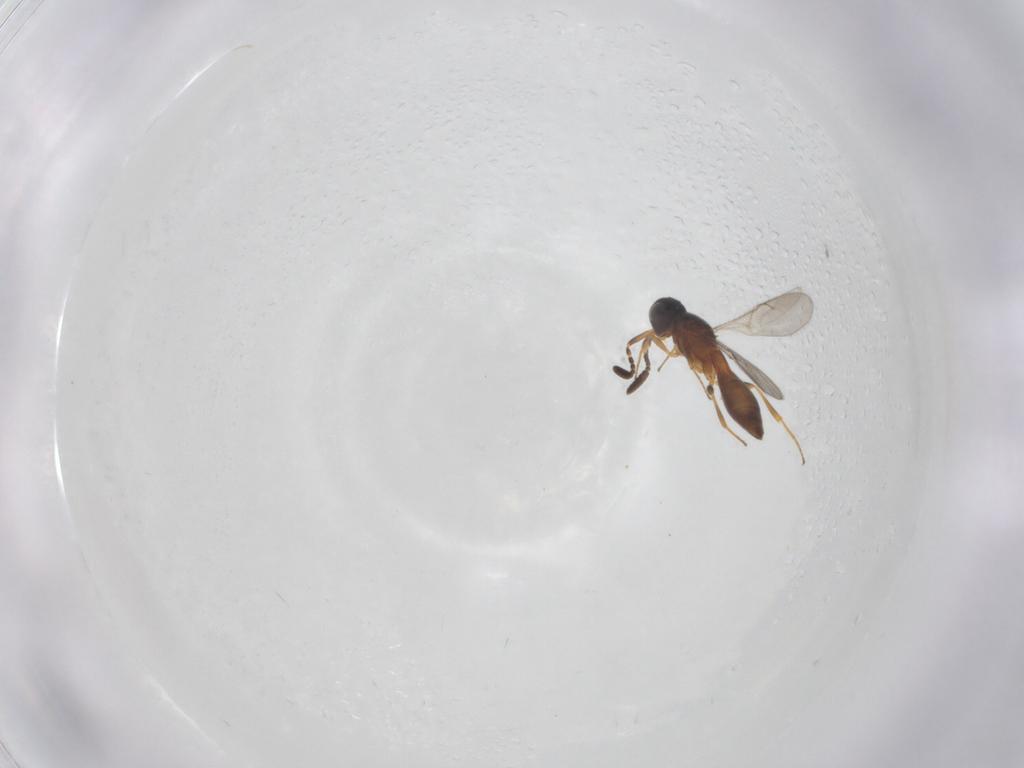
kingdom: Animalia
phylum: Arthropoda
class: Insecta
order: Hymenoptera
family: Scelionidae
